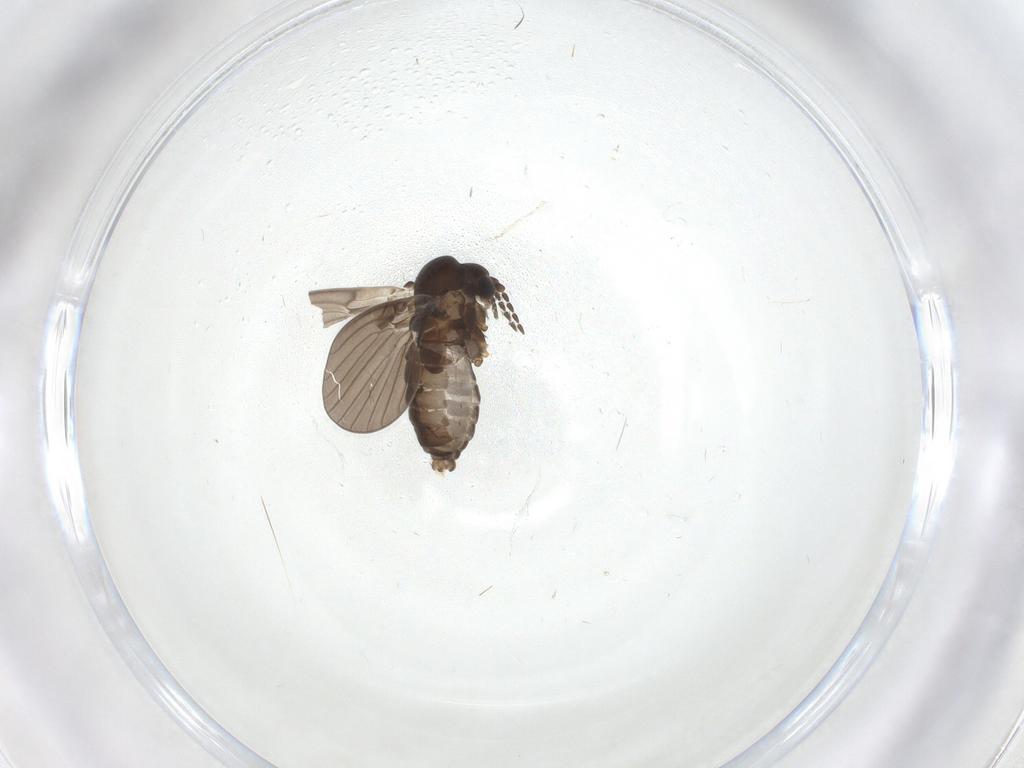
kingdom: Animalia
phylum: Arthropoda
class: Insecta
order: Diptera
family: Psychodidae
